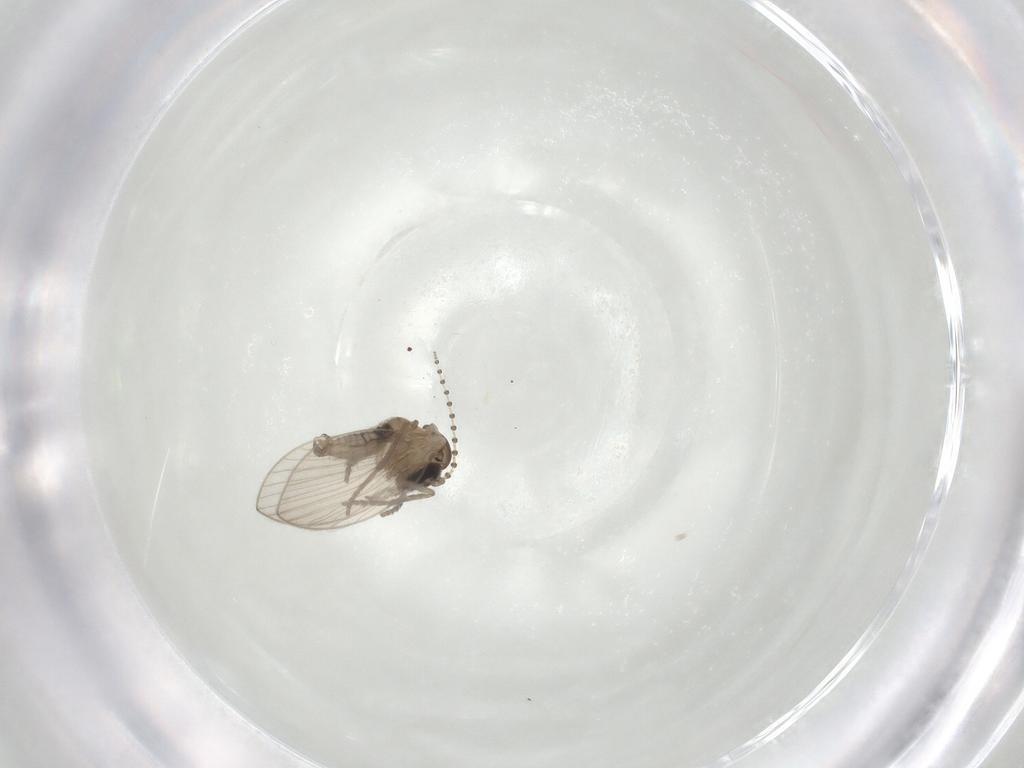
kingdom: Animalia
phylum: Arthropoda
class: Insecta
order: Diptera
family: Psychodidae
